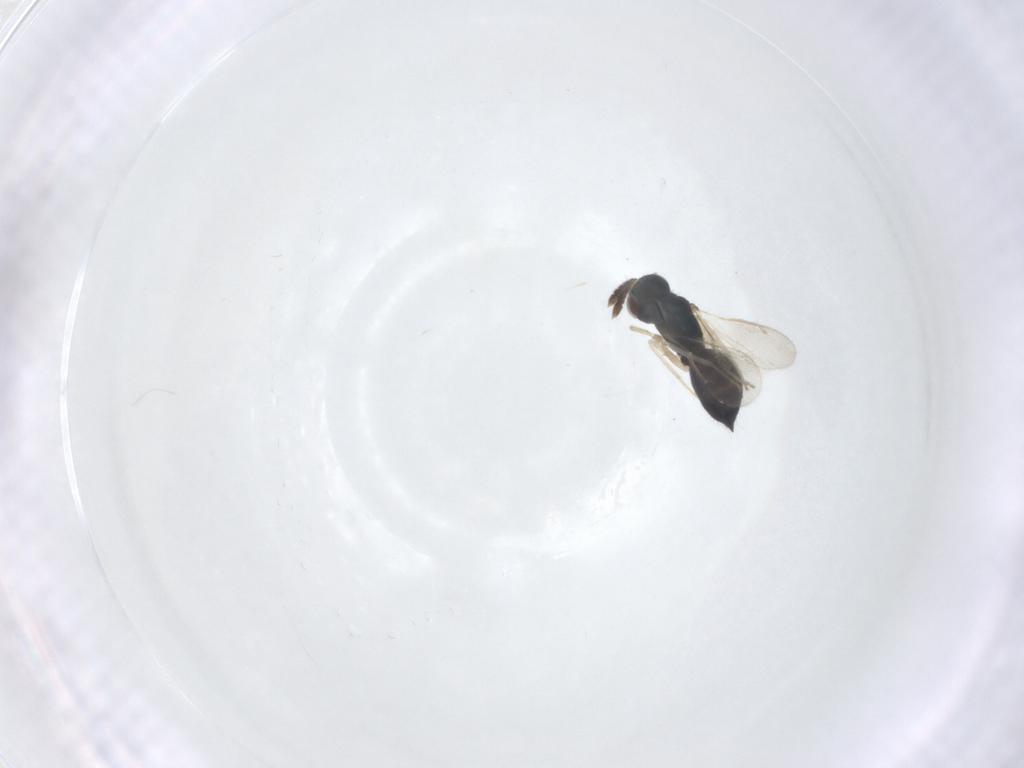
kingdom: Animalia
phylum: Arthropoda
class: Insecta
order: Hymenoptera
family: Eulophidae
